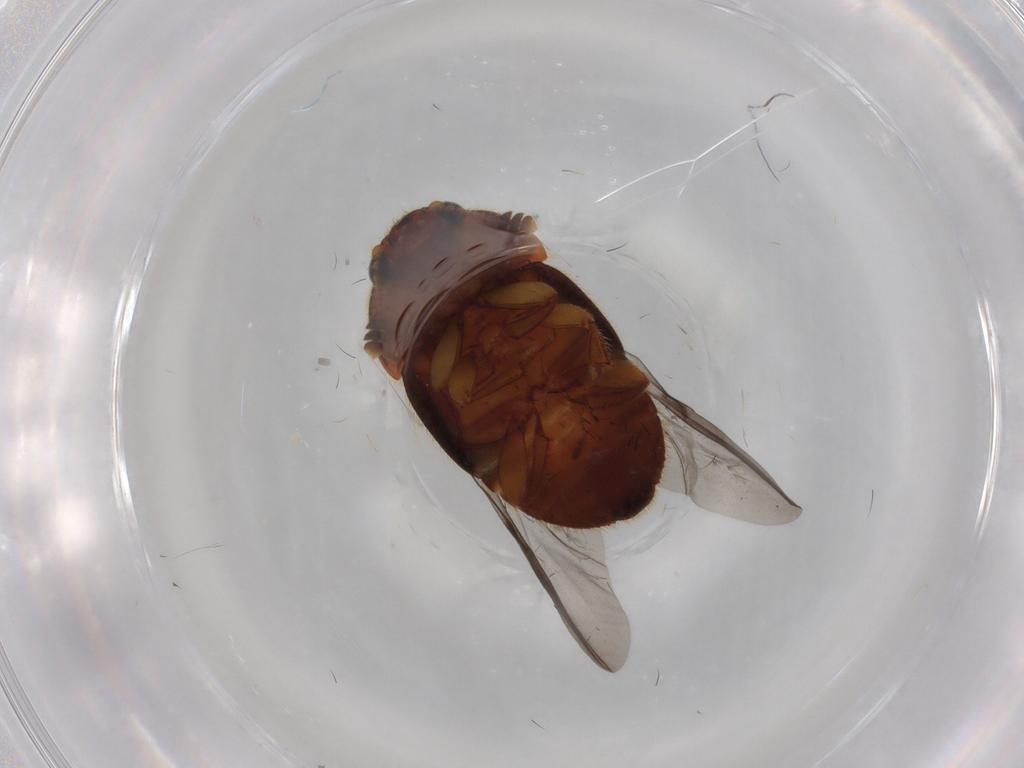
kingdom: Animalia
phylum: Arthropoda
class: Insecta
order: Coleoptera
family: Nitidulidae
